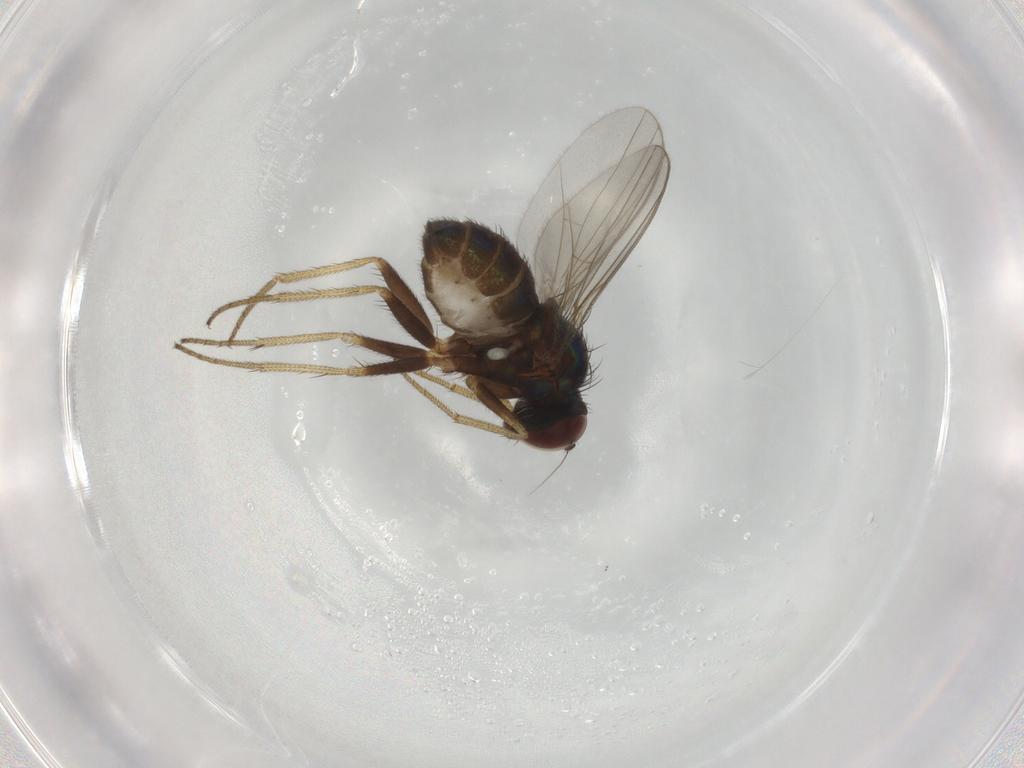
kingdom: Animalia
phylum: Arthropoda
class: Insecta
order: Diptera
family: Dolichopodidae
